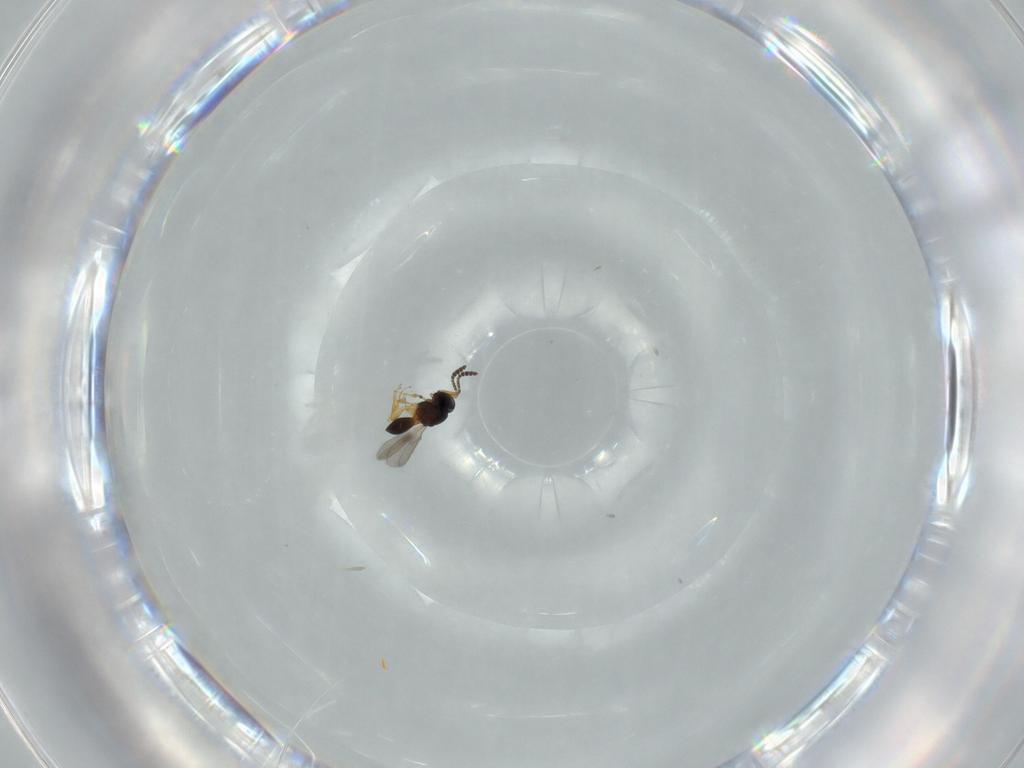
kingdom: Animalia
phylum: Arthropoda
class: Insecta
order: Hymenoptera
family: Scelionidae
